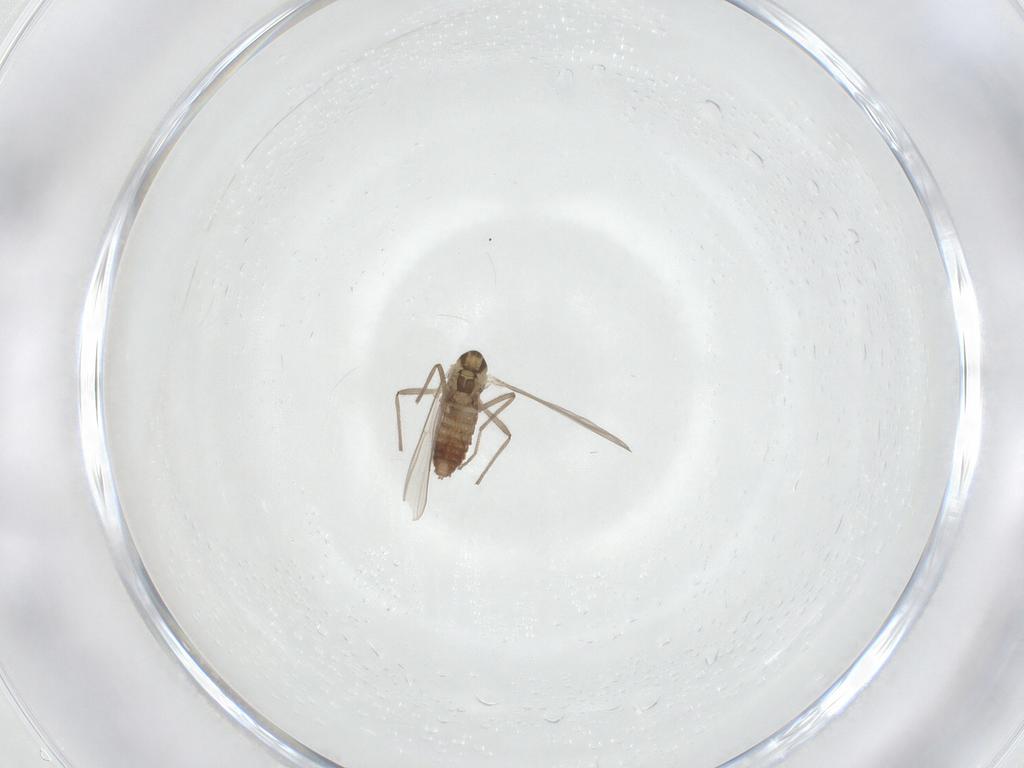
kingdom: Animalia
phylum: Arthropoda
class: Insecta
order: Diptera
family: Chironomidae
